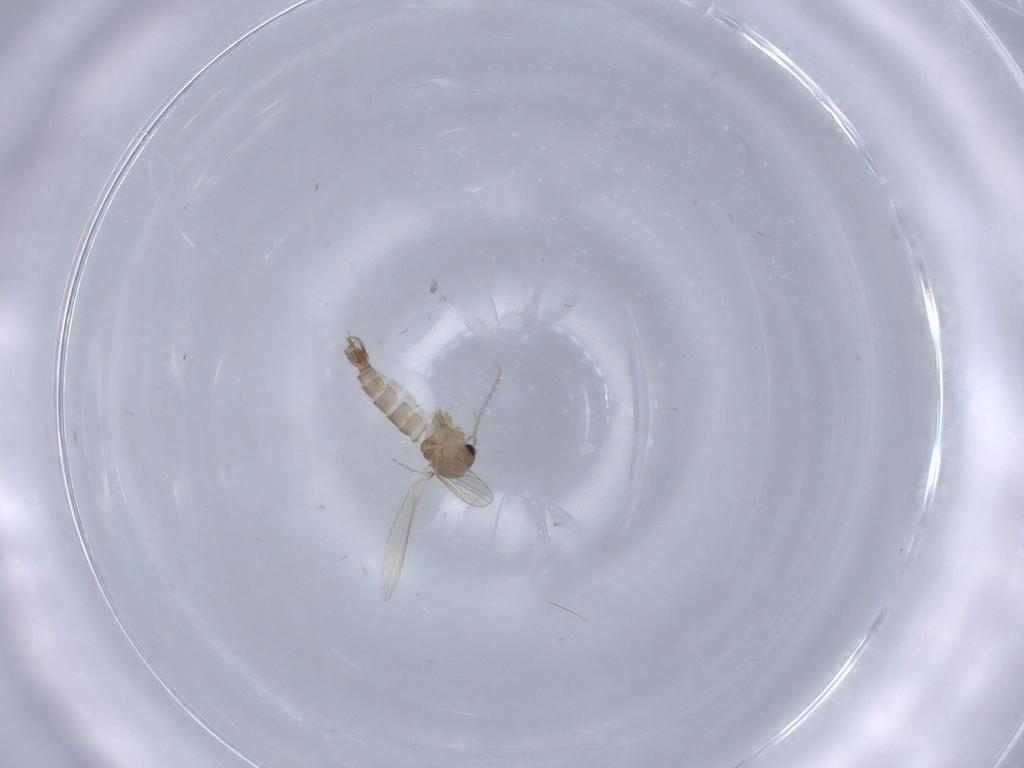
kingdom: Animalia
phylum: Arthropoda
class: Insecta
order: Diptera
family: Psychodidae
